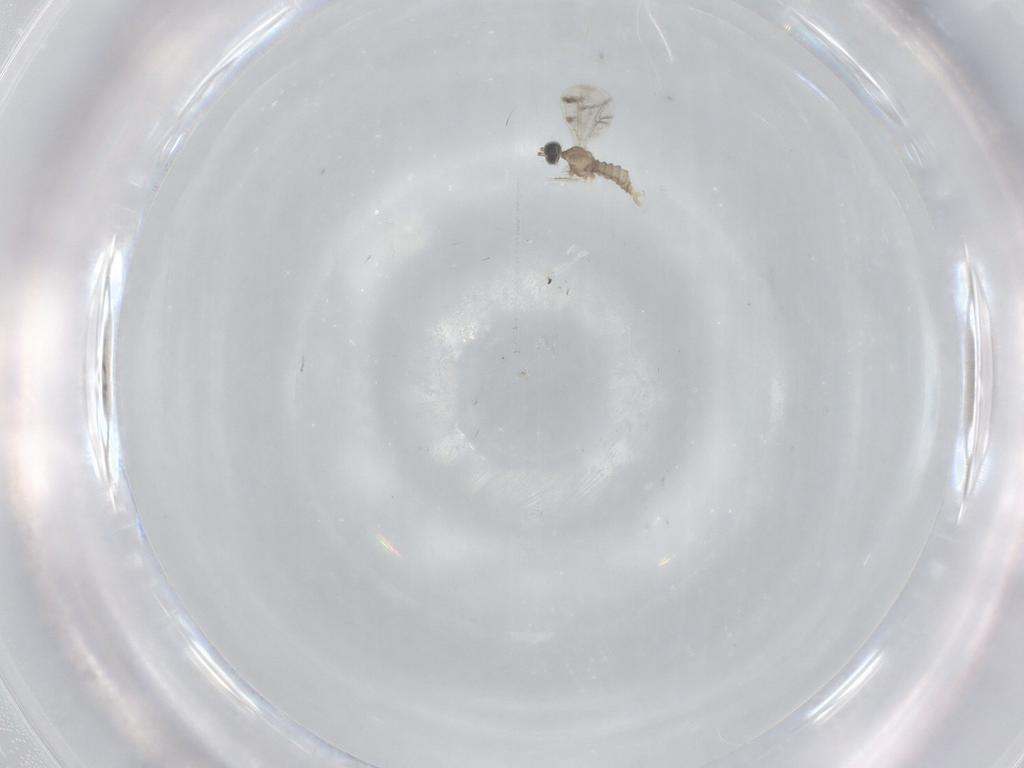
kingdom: Animalia
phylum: Arthropoda
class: Insecta
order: Diptera
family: Cecidomyiidae
